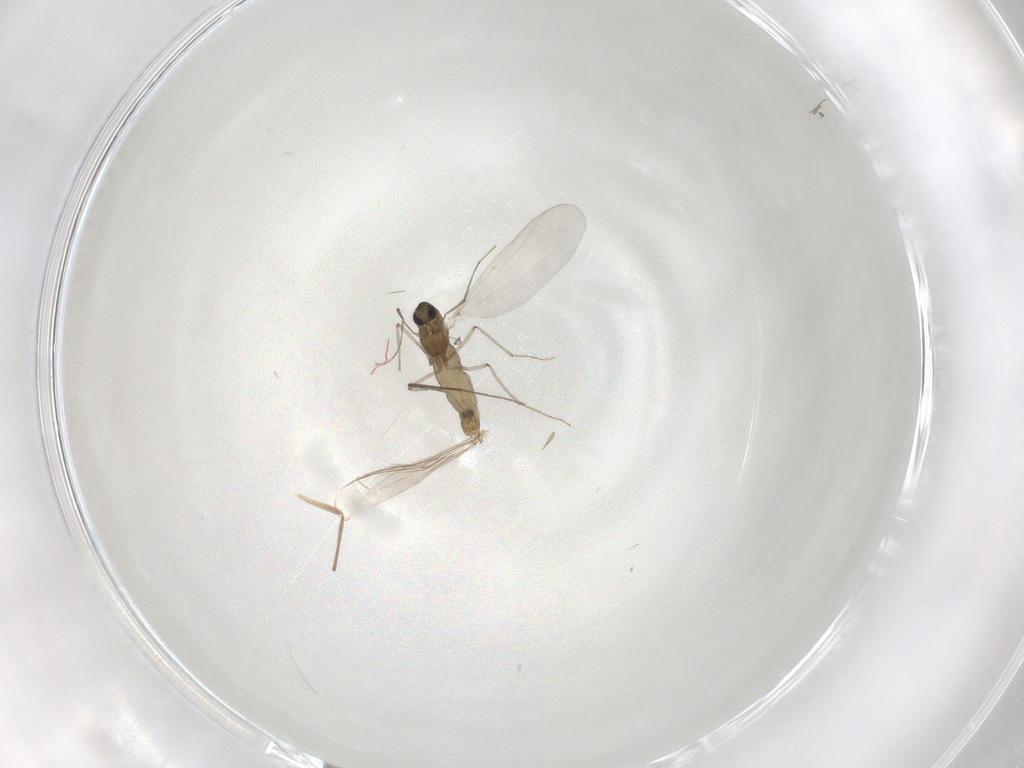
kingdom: Animalia
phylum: Arthropoda
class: Insecta
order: Diptera
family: Chironomidae
